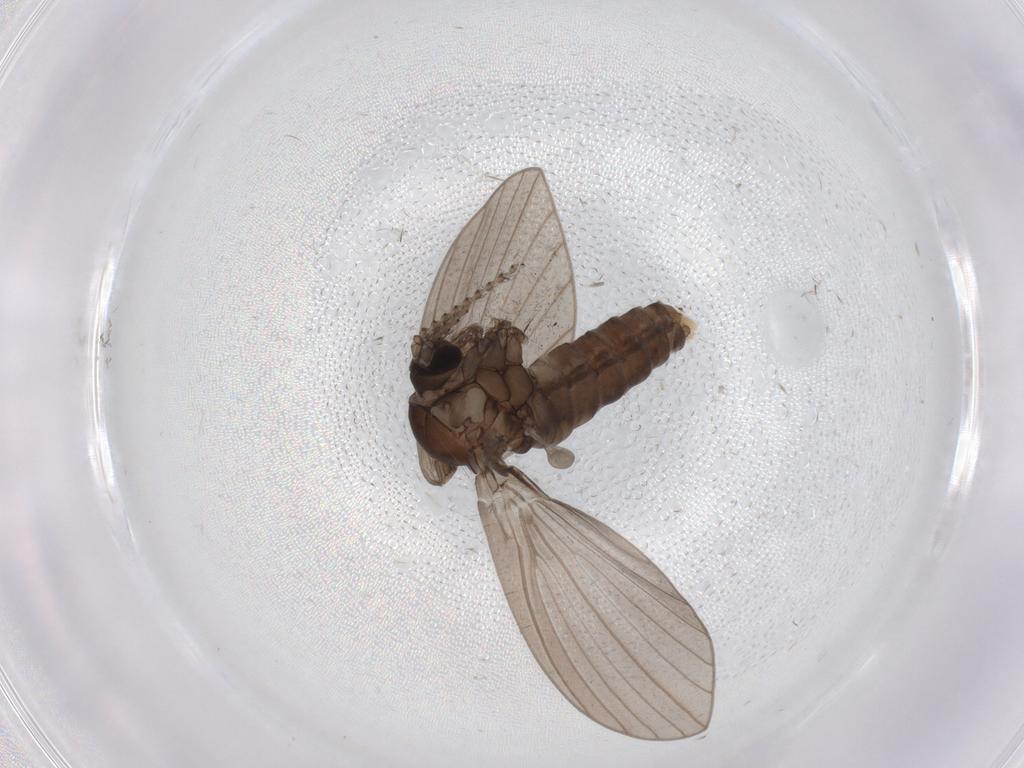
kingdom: Animalia
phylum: Arthropoda
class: Insecta
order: Diptera
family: Psychodidae
